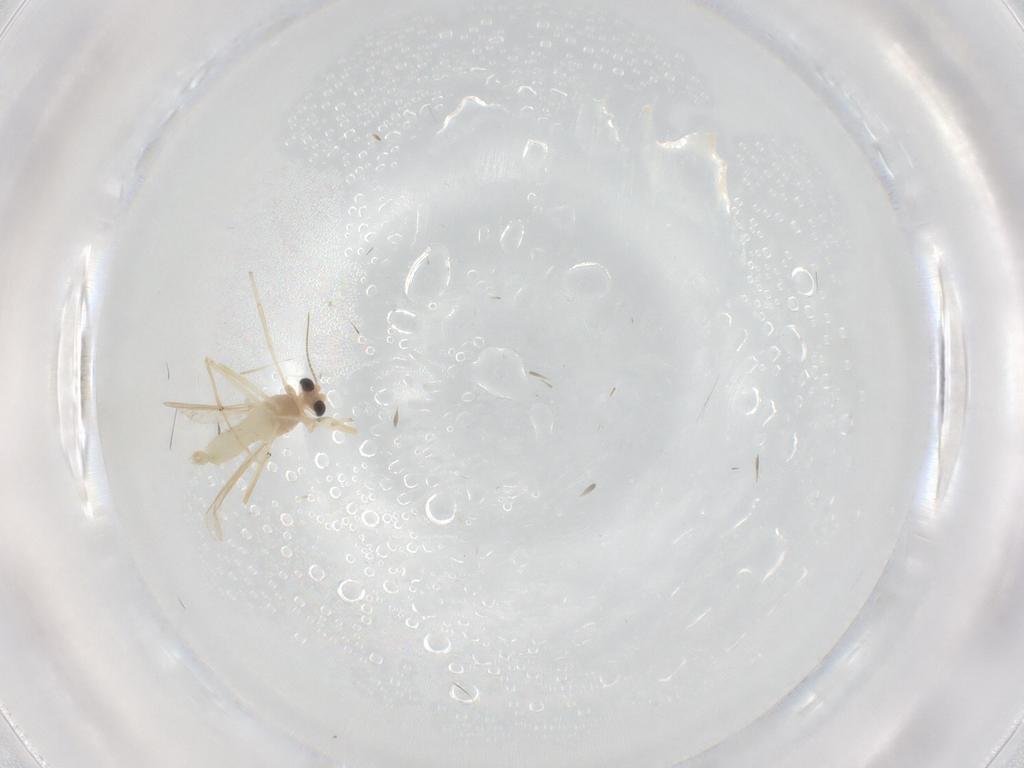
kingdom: Animalia
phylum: Arthropoda
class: Insecta
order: Diptera
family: Chironomidae
